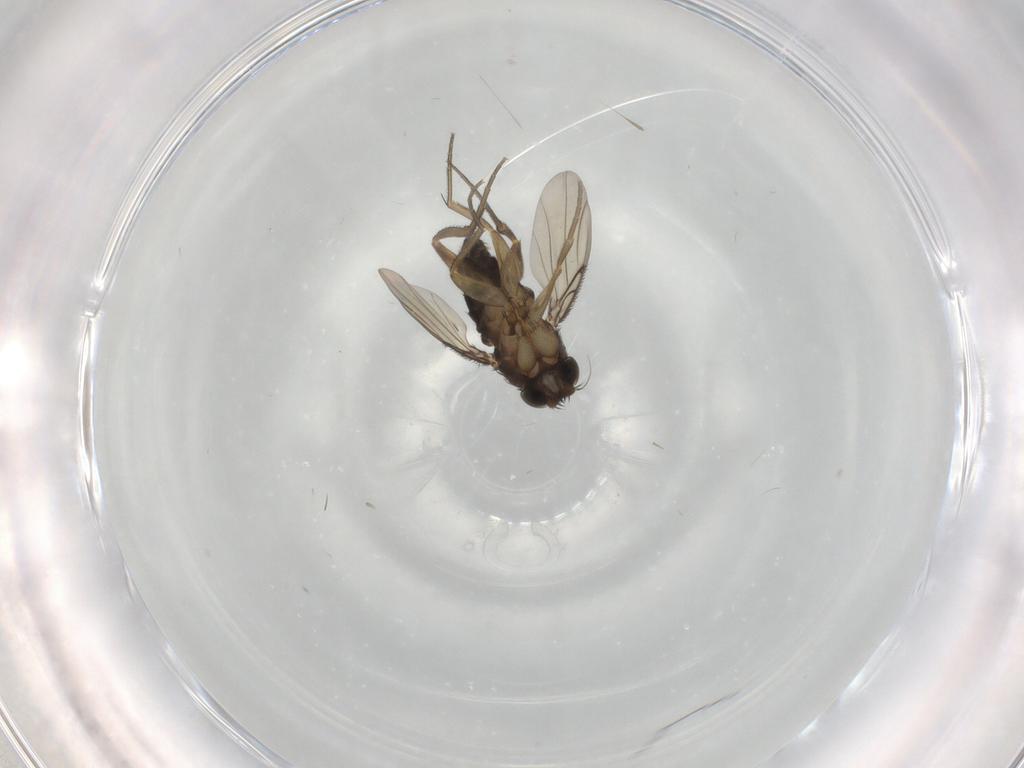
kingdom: Animalia
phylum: Arthropoda
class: Insecta
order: Diptera
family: Phoridae
